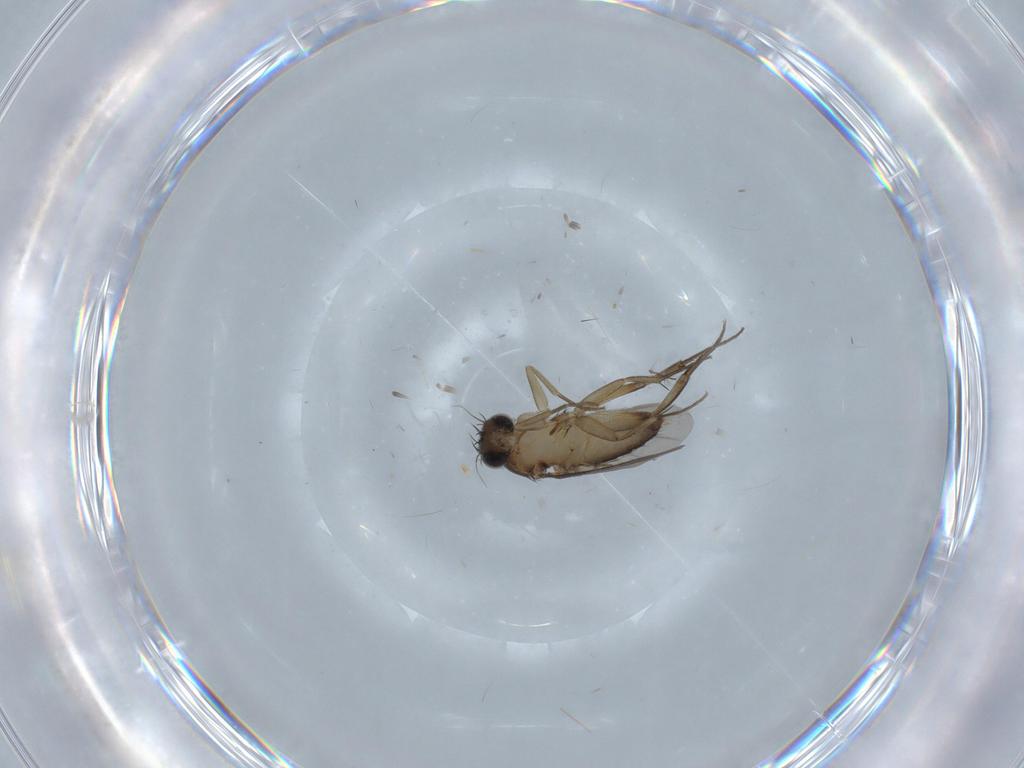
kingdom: Animalia
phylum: Arthropoda
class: Insecta
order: Diptera
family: Phoridae
